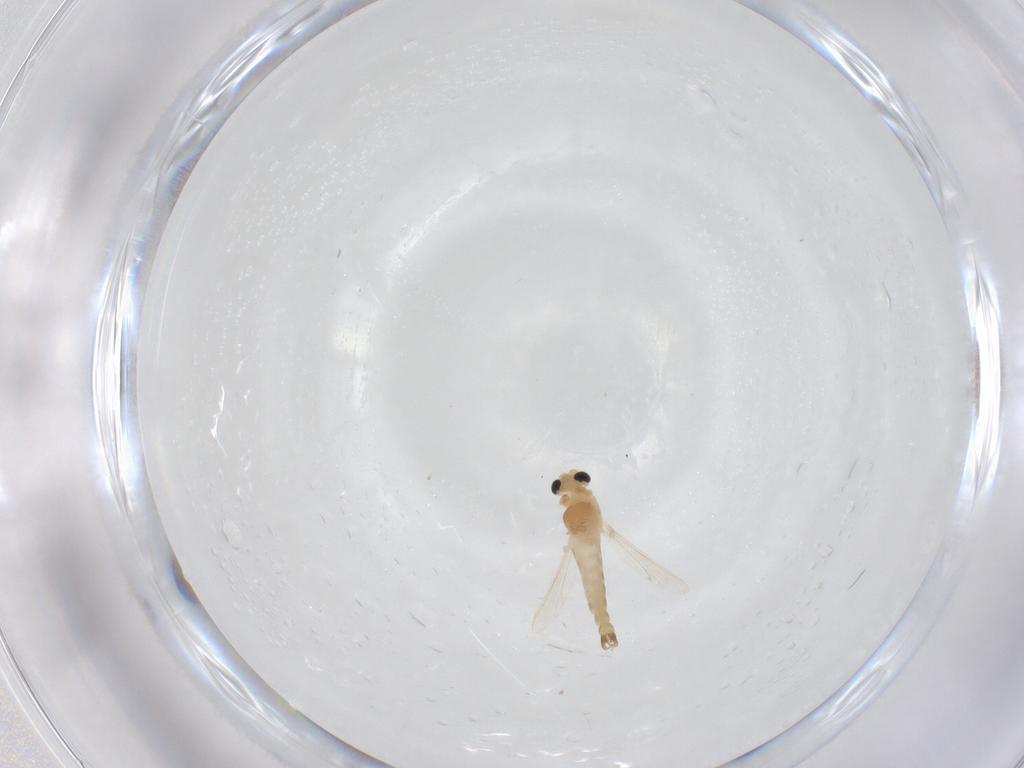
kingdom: Animalia
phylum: Arthropoda
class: Insecta
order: Diptera
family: Chironomidae
